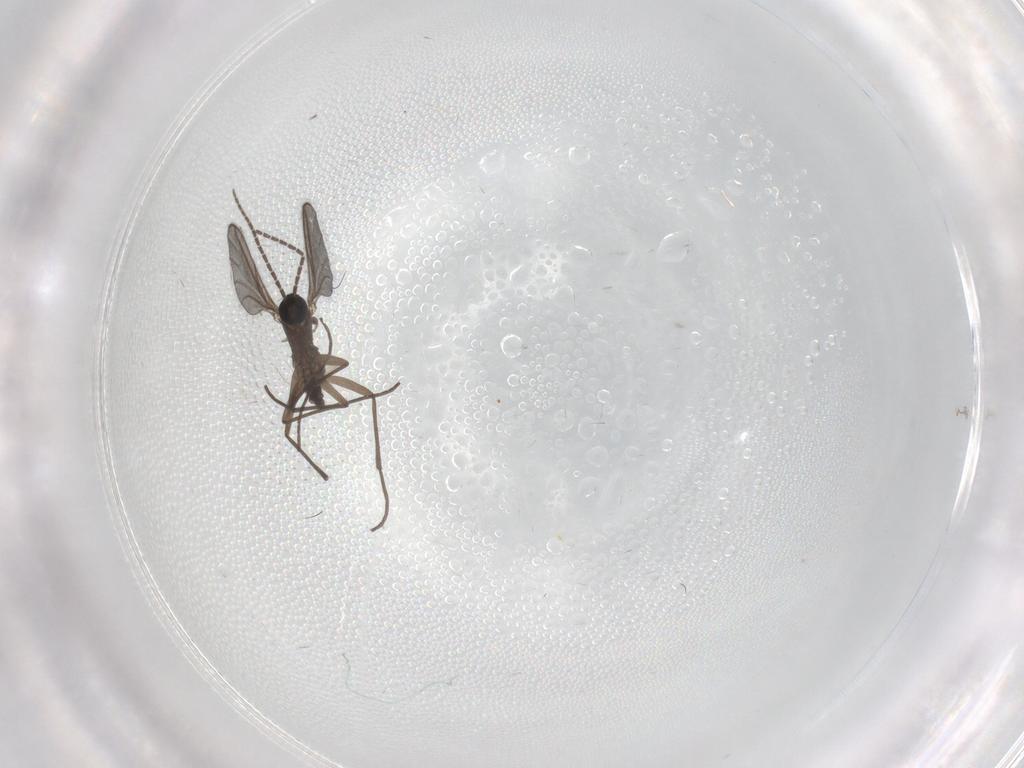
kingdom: Animalia
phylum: Arthropoda
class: Insecta
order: Diptera
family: Sciaridae
